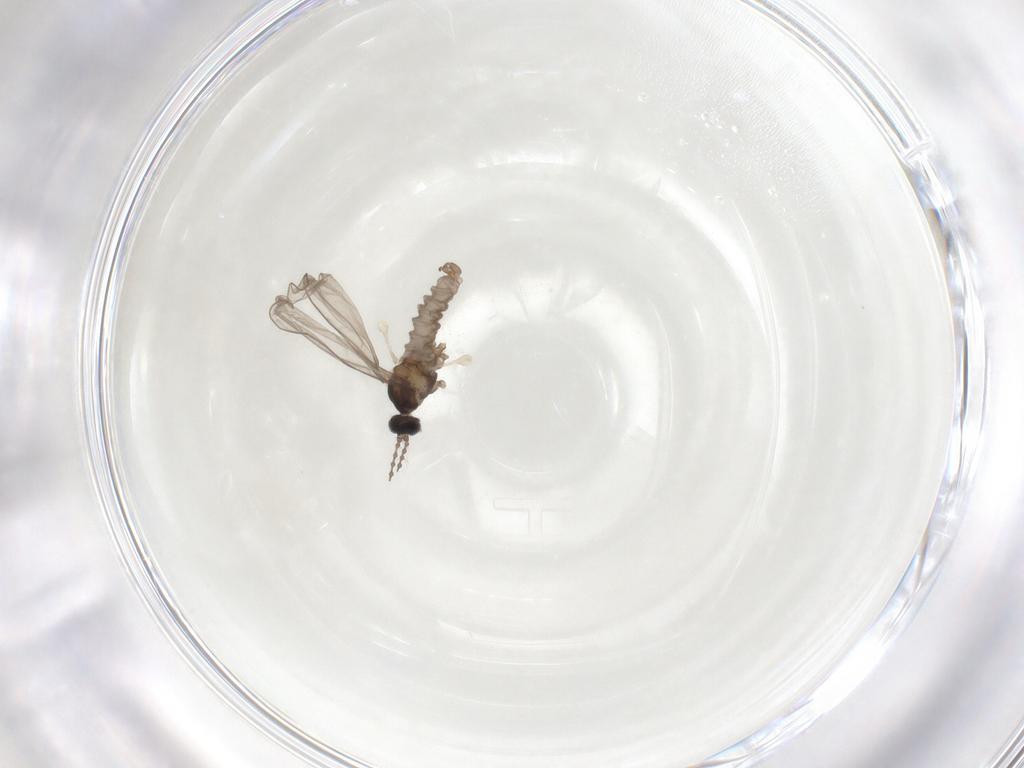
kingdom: Animalia
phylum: Arthropoda
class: Insecta
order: Diptera
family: Cecidomyiidae
